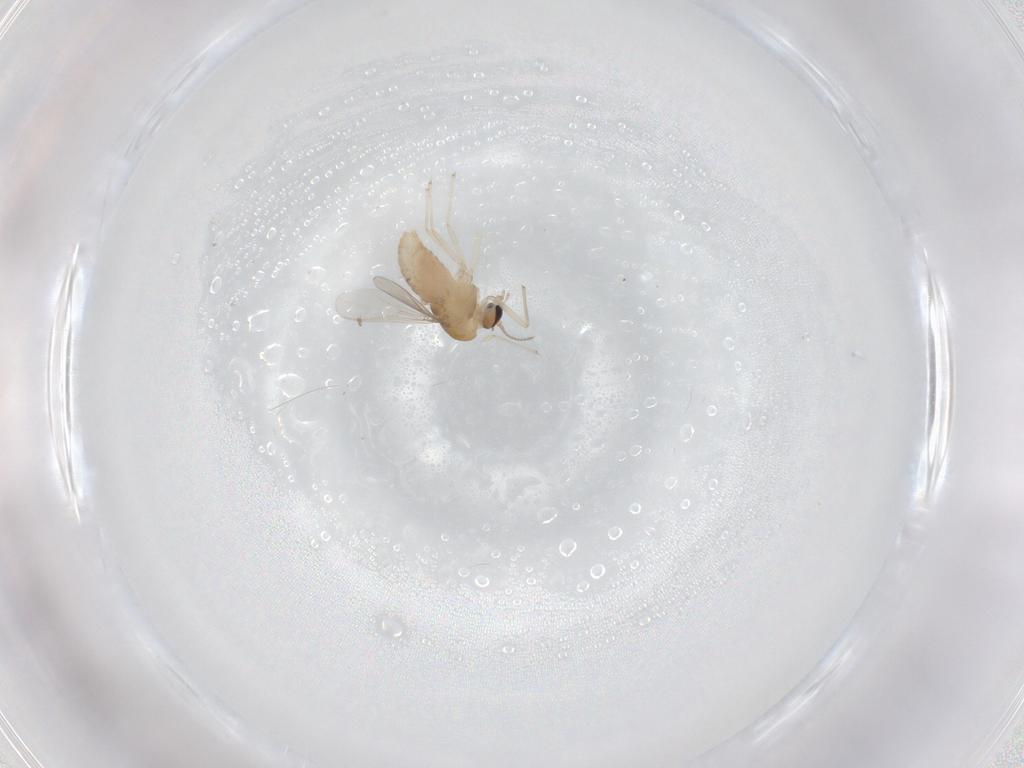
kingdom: Animalia
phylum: Arthropoda
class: Insecta
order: Diptera
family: Chironomidae
